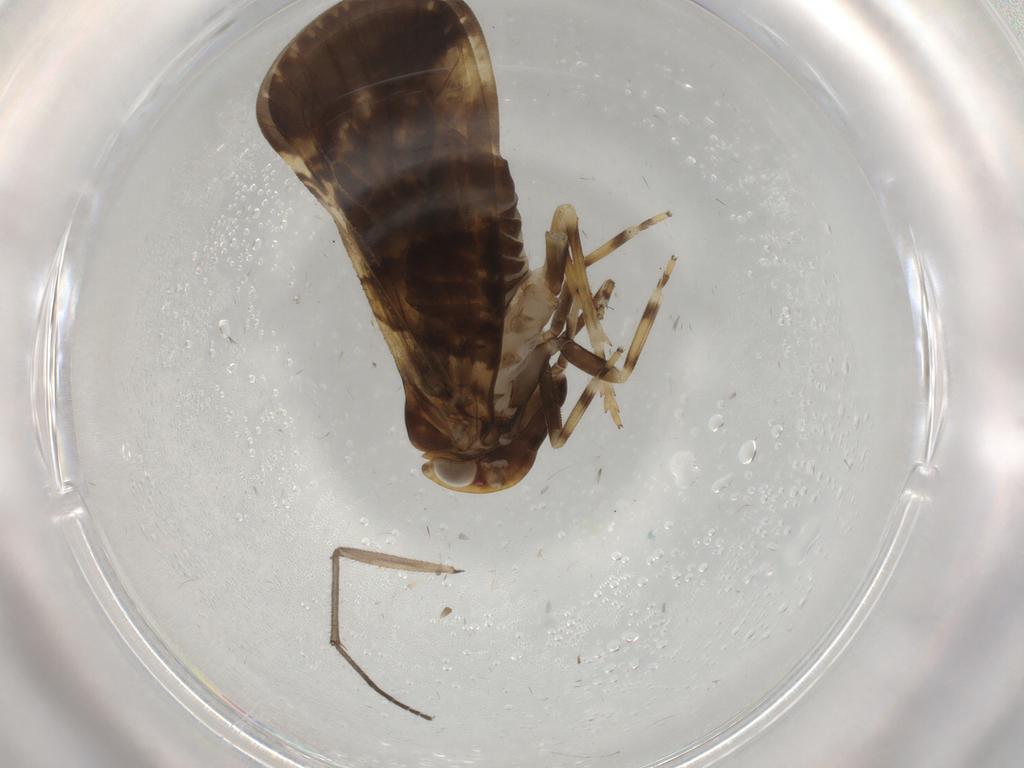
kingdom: Animalia
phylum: Arthropoda
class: Insecta
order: Hemiptera
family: Cixiidae
